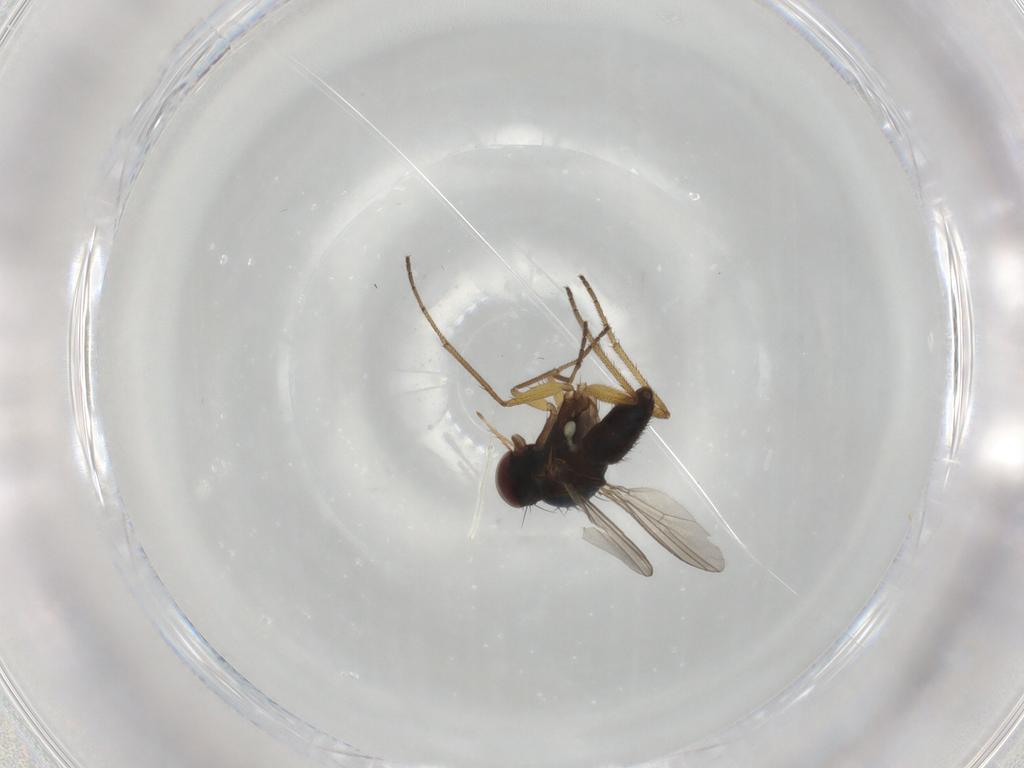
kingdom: Animalia
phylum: Arthropoda
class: Insecta
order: Diptera
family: Dolichopodidae
